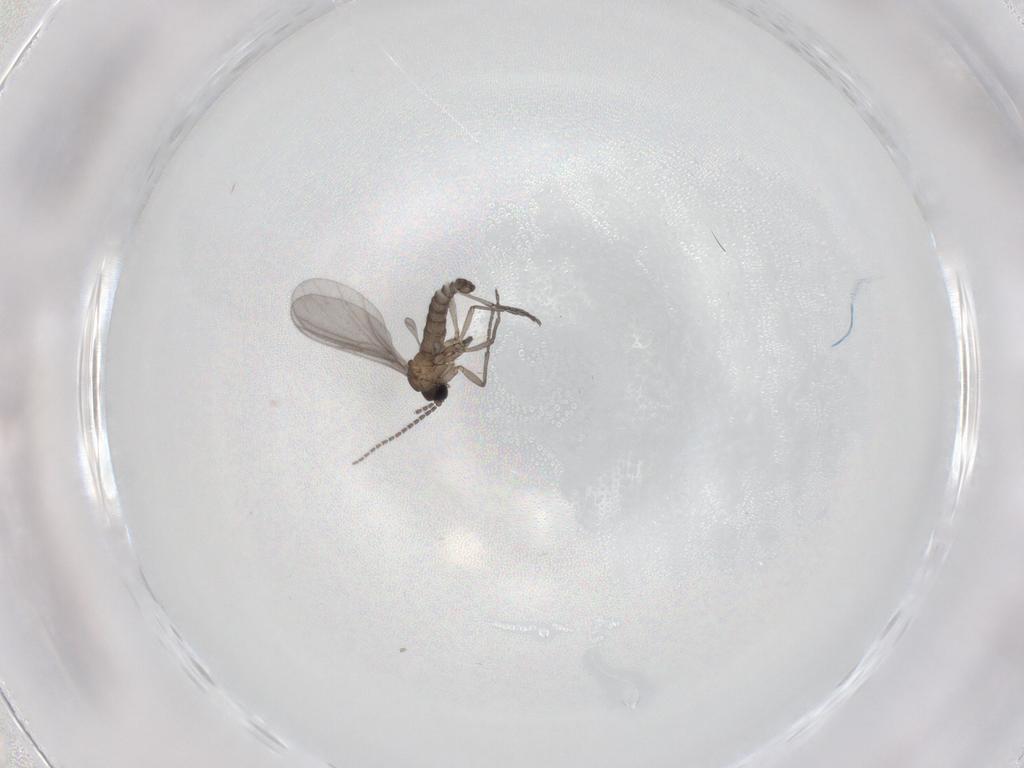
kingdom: Animalia
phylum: Arthropoda
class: Insecta
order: Diptera
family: Sciaridae
